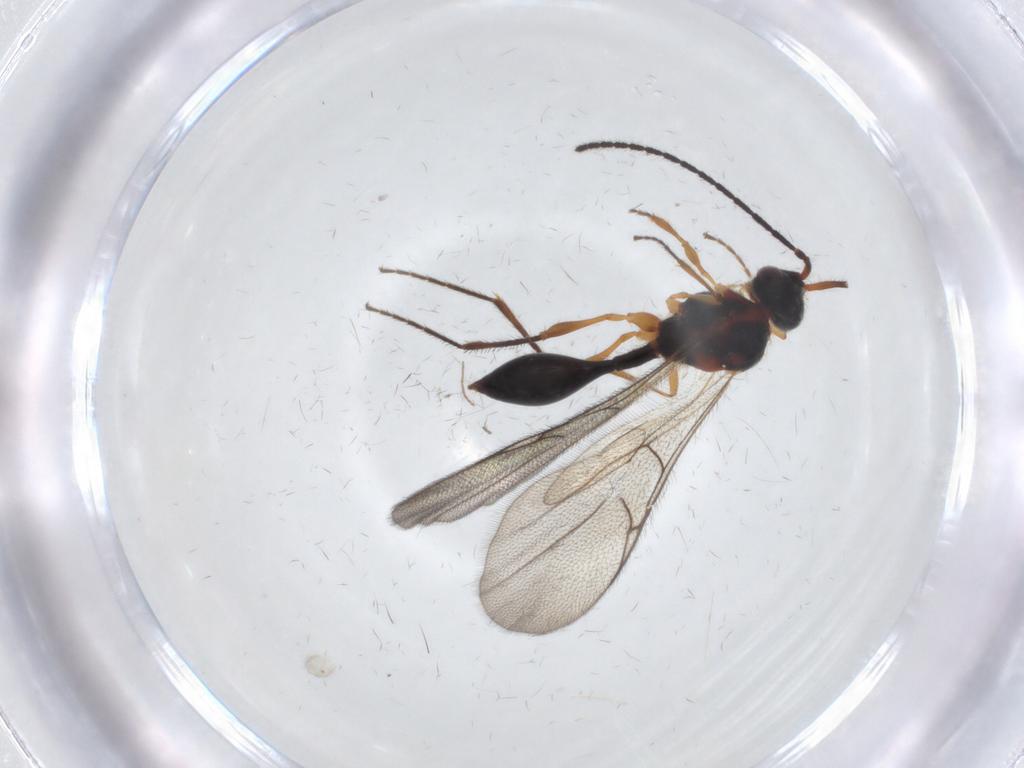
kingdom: Animalia
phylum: Arthropoda
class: Insecta
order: Hymenoptera
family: Diapriidae
